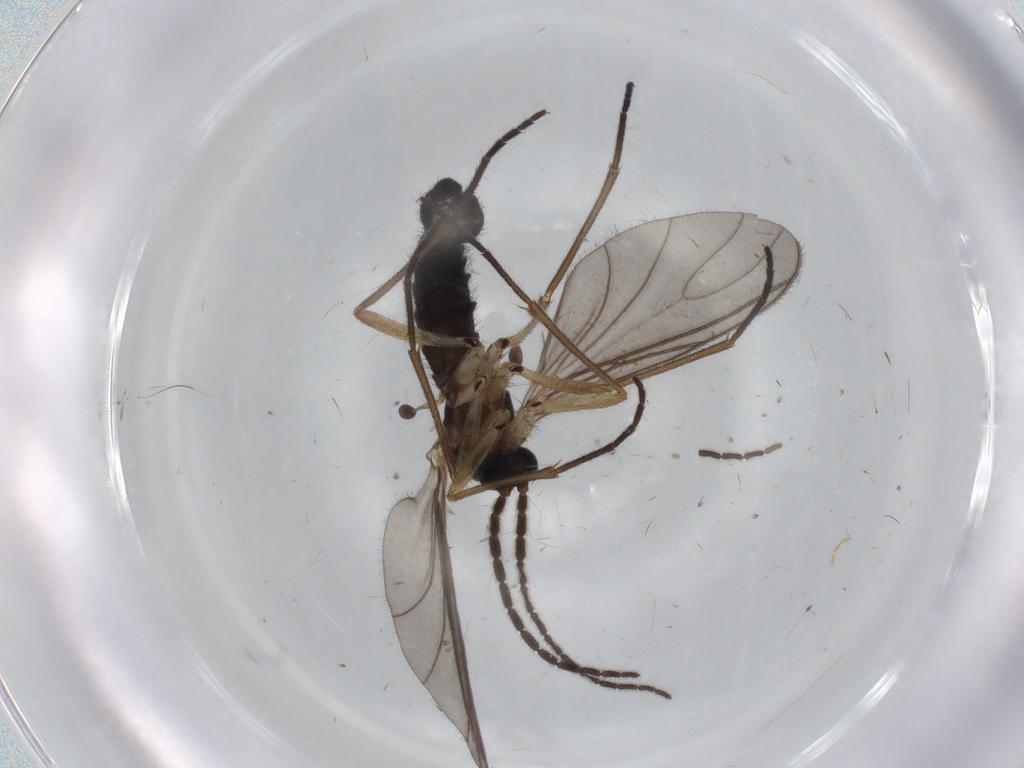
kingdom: Animalia
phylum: Arthropoda
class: Insecta
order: Diptera
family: Sciaridae
